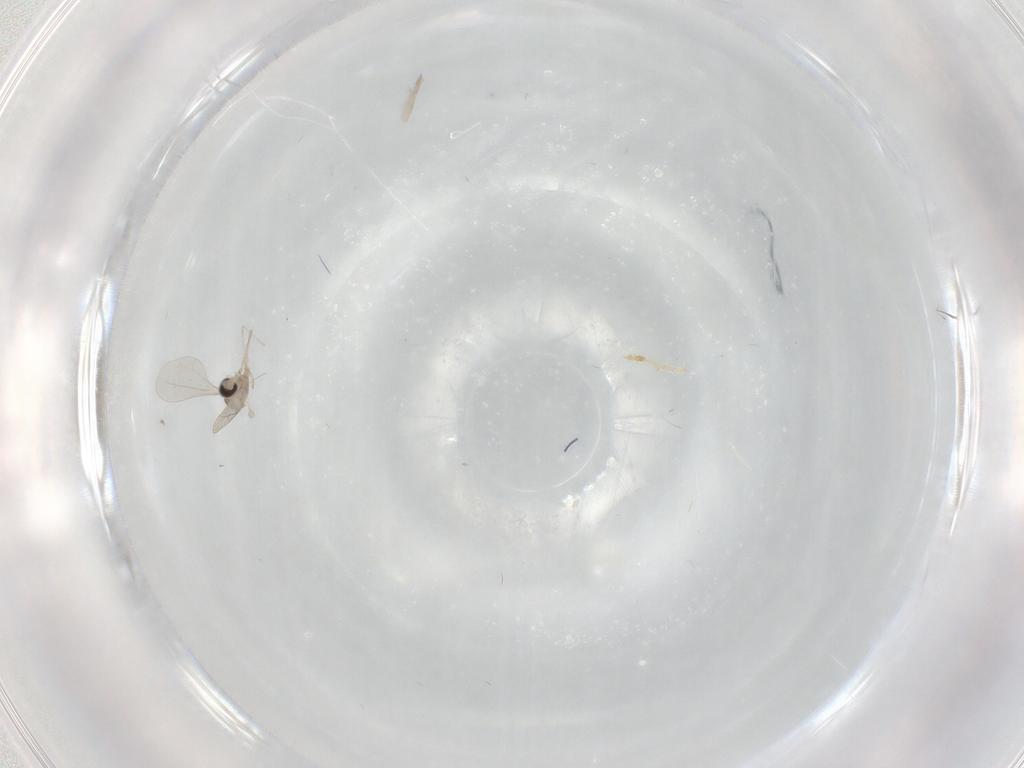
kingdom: Animalia
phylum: Arthropoda
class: Insecta
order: Diptera
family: Cecidomyiidae
